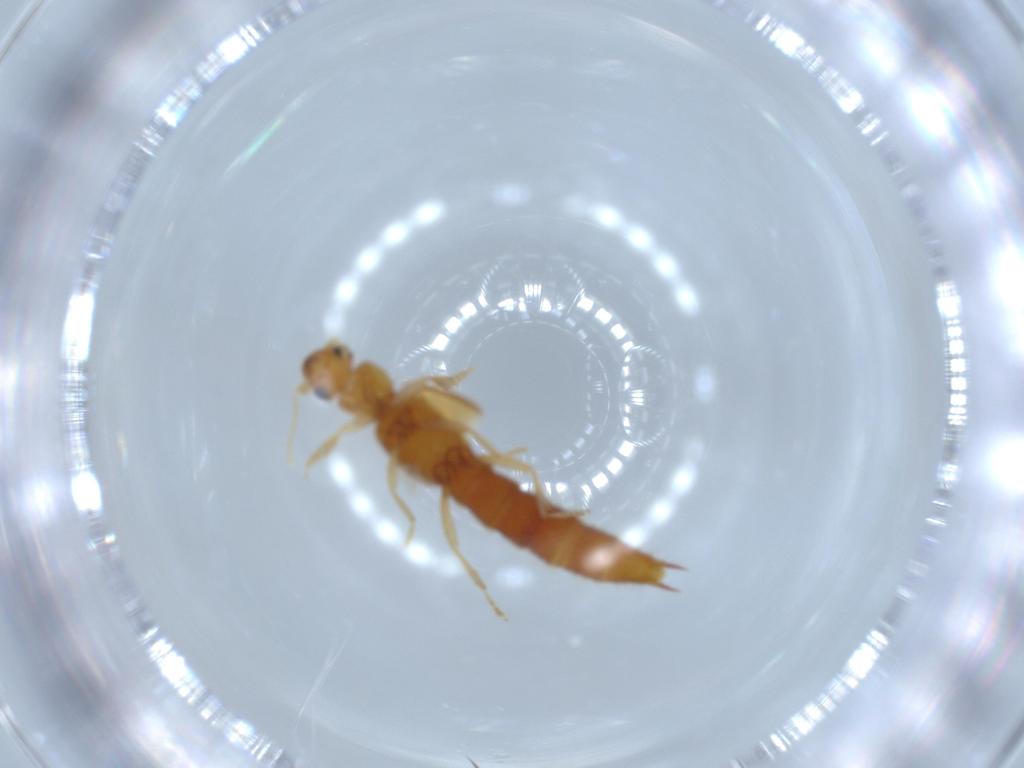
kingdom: Animalia
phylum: Arthropoda
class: Insecta
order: Coleoptera
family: Staphylinidae
